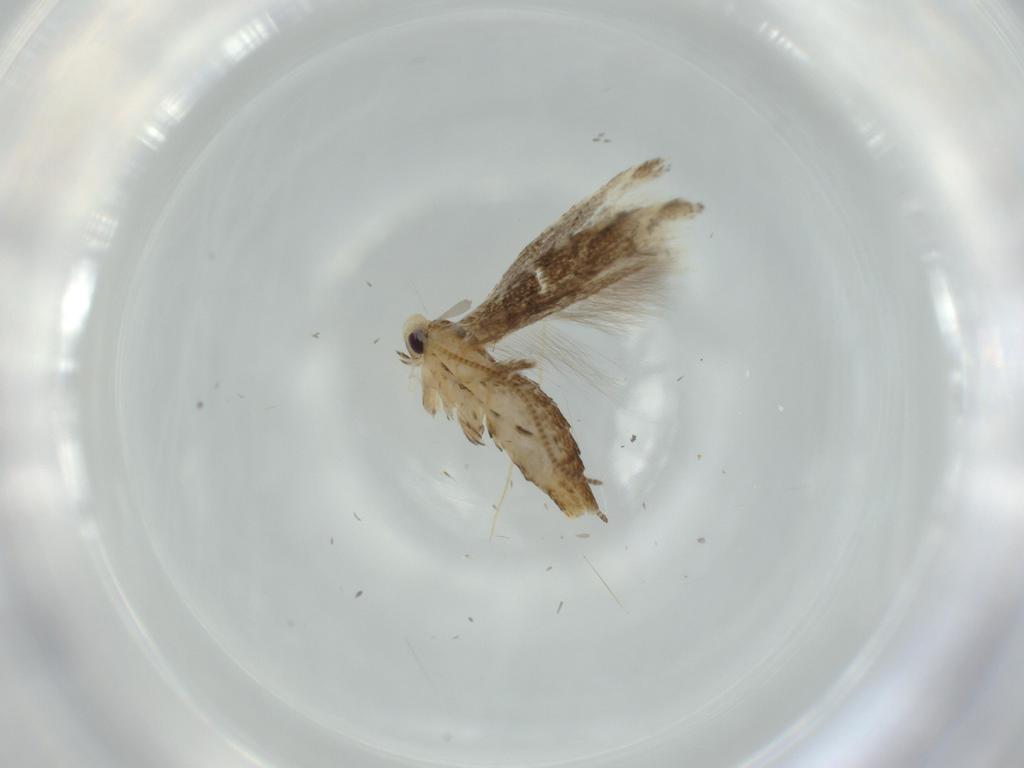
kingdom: Animalia
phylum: Arthropoda
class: Insecta
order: Lepidoptera
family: Gracillariidae
